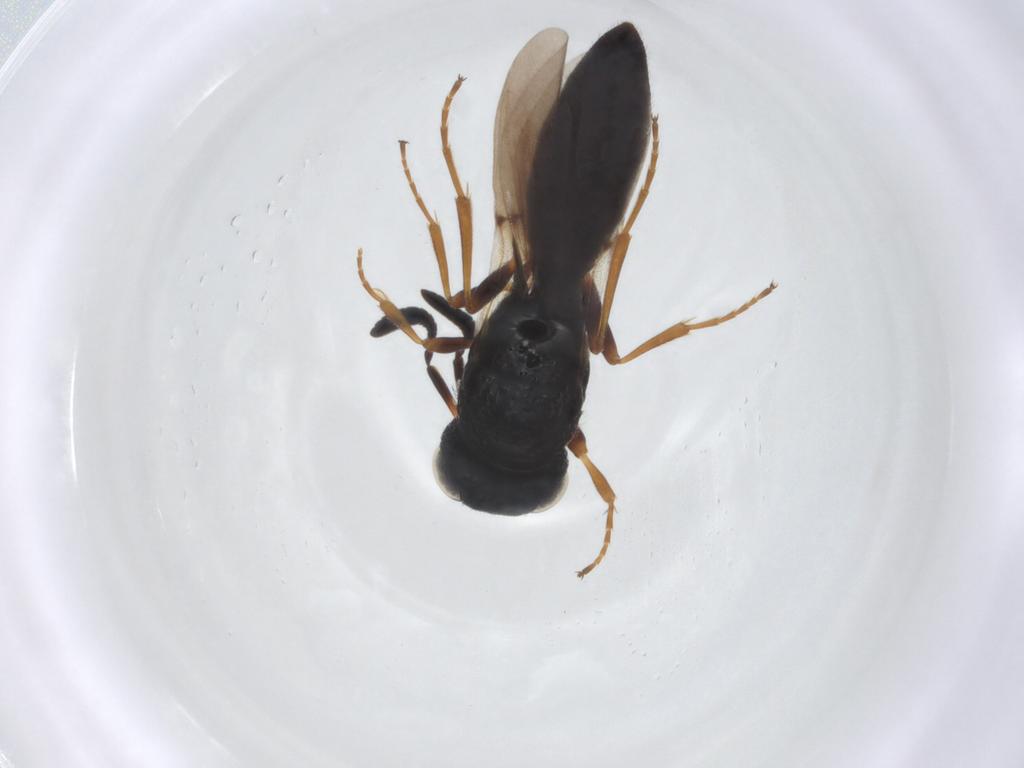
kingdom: Animalia
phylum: Arthropoda
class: Insecta
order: Hymenoptera
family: Scelionidae
